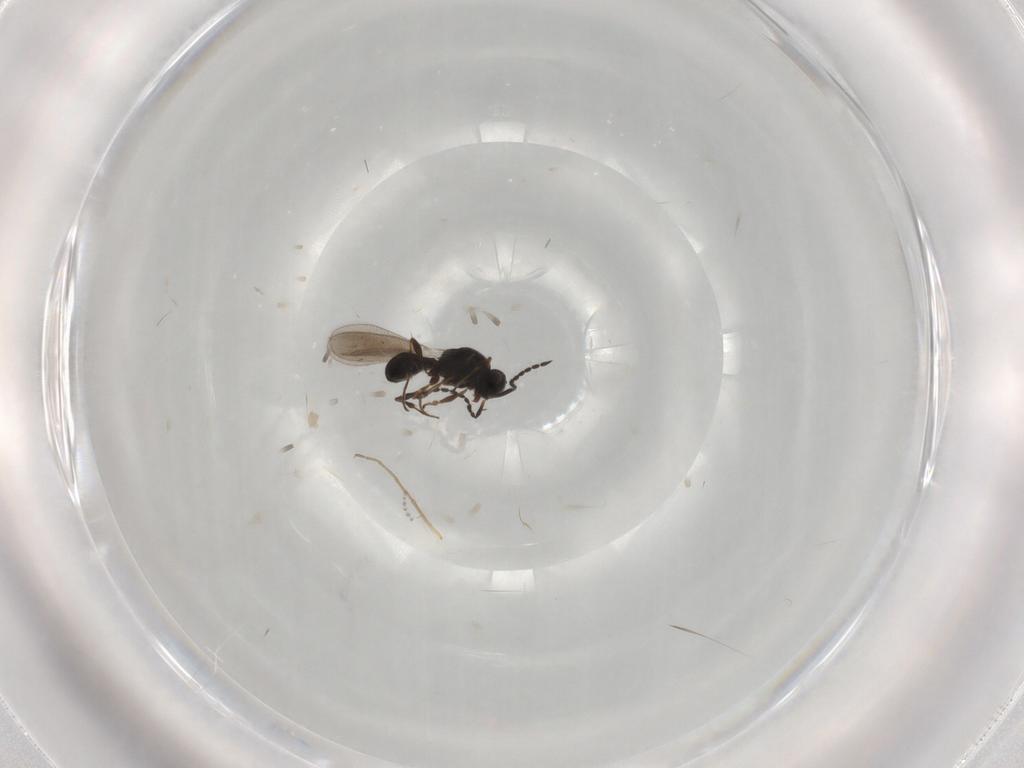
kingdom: Animalia
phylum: Arthropoda
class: Insecta
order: Hymenoptera
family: Platygastridae
